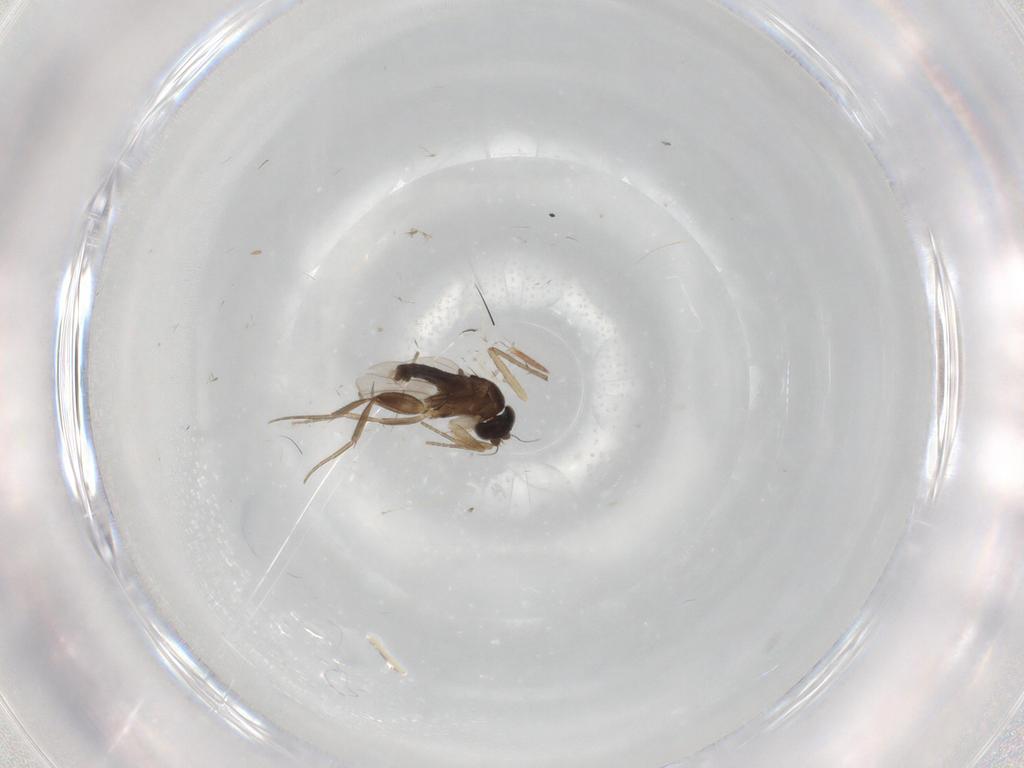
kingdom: Animalia
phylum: Arthropoda
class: Insecta
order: Diptera
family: Phoridae
